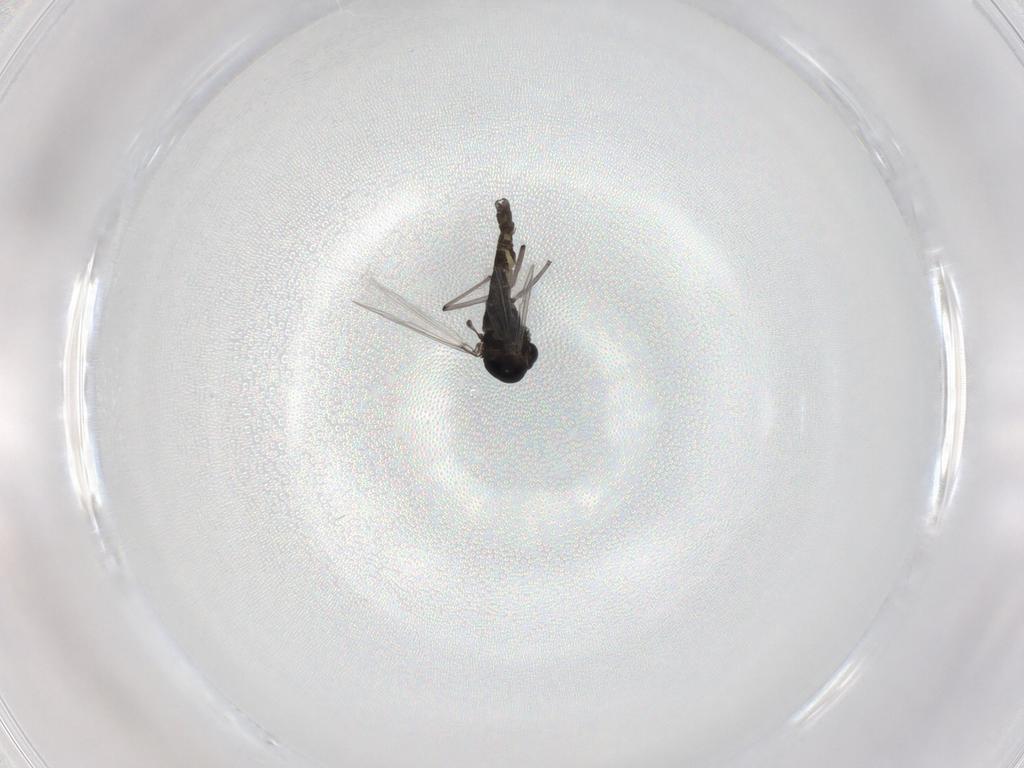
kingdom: Animalia
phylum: Arthropoda
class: Insecta
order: Diptera
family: Chironomidae
